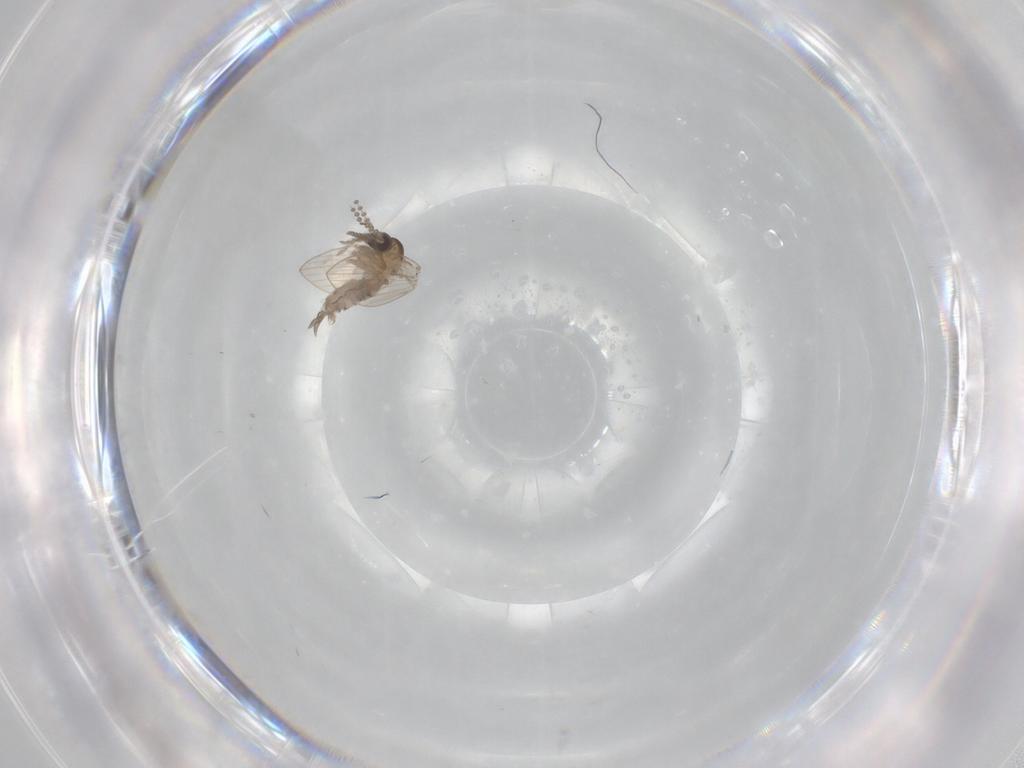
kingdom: Animalia
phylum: Arthropoda
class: Insecta
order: Diptera
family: Psychodidae
